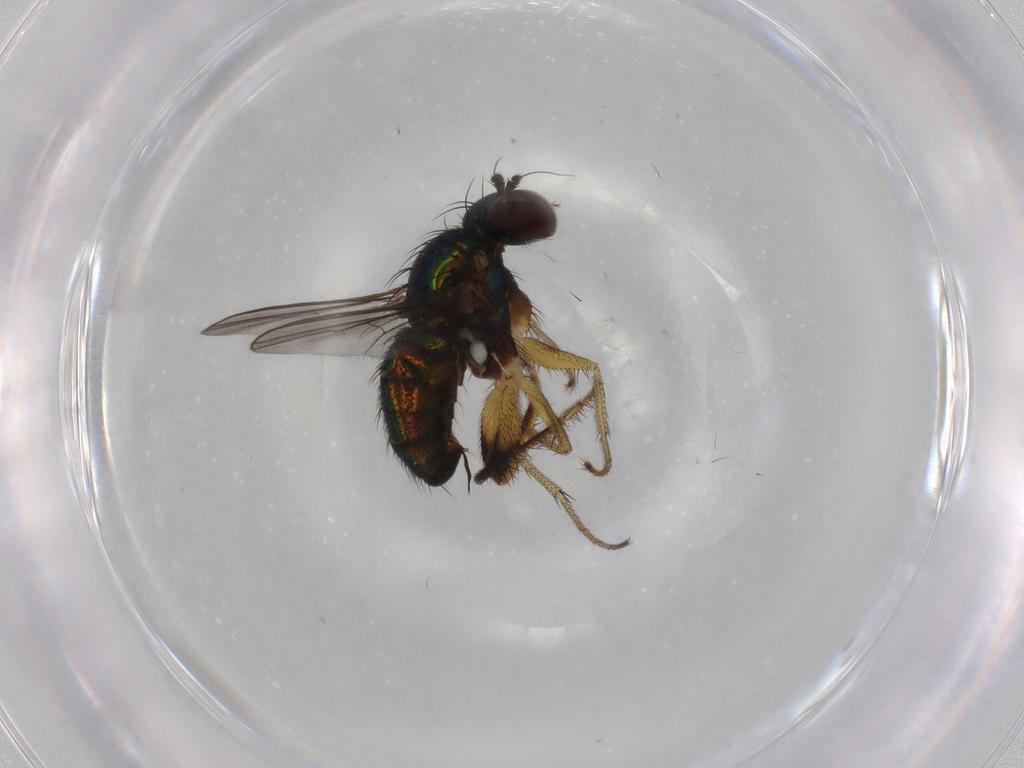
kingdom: Animalia
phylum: Arthropoda
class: Insecta
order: Diptera
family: Dolichopodidae
